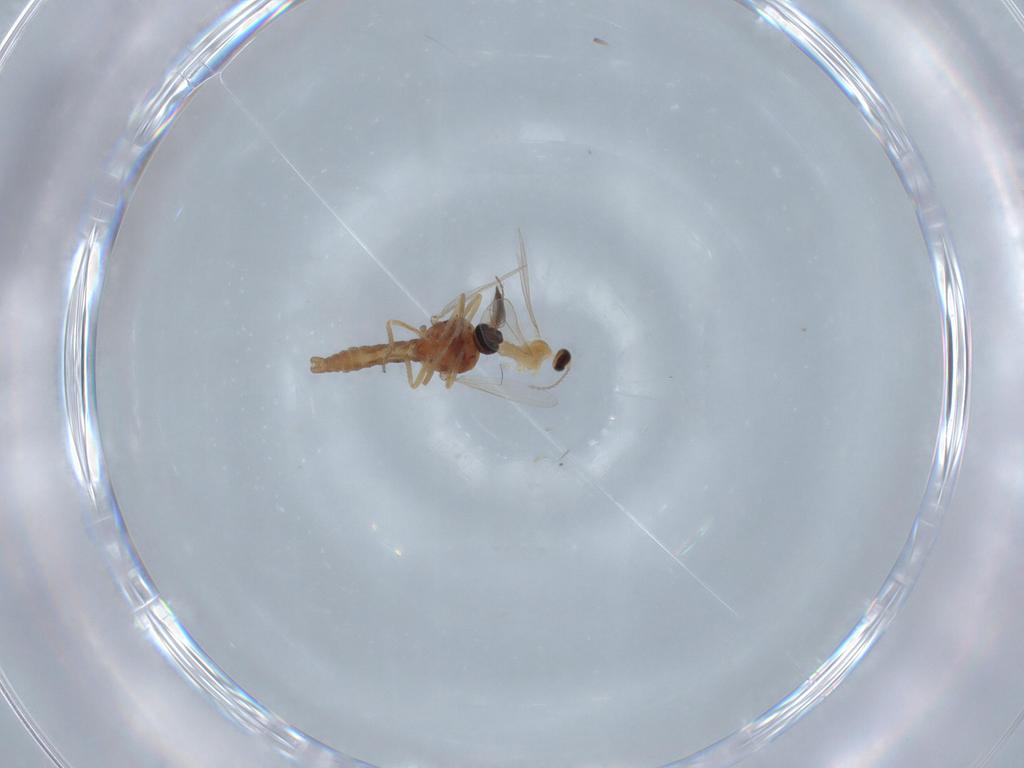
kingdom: Animalia
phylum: Arthropoda
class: Insecta
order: Diptera
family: Ceratopogonidae
